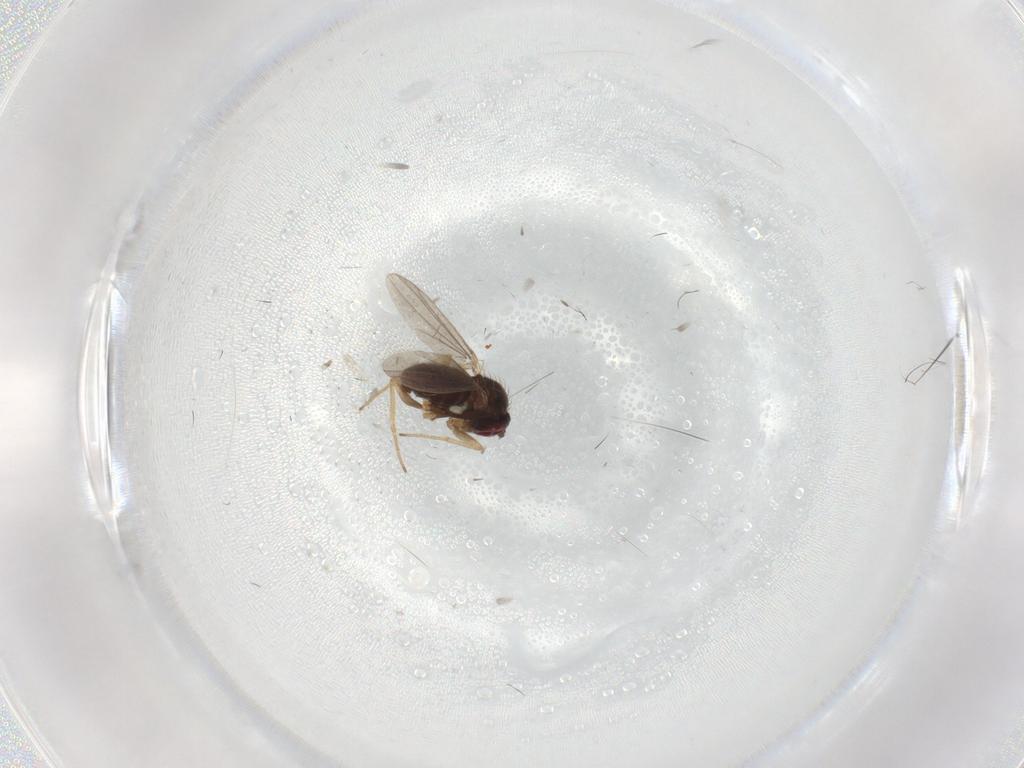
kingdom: Animalia
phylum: Arthropoda
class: Insecta
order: Diptera
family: Dolichopodidae
